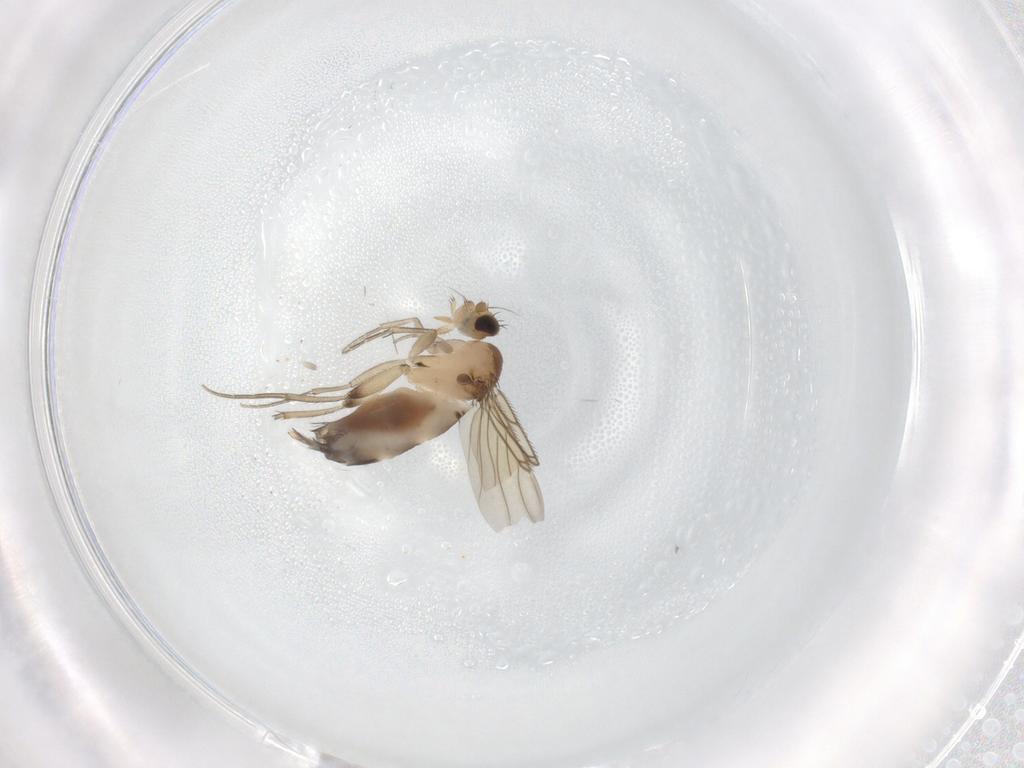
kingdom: Animalia
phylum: Arthropoda
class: Insecta
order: Diptera
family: Phoridae
